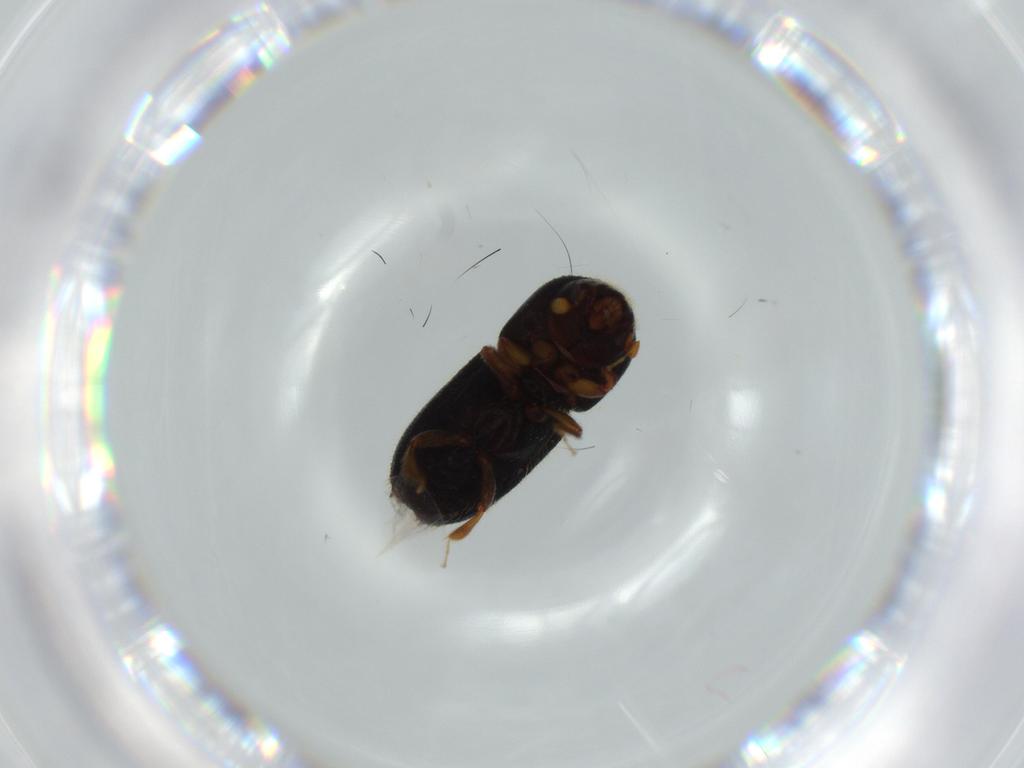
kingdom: Animalia
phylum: Arthropoda
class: Insecta
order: Coleoptera
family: Curculionidae
